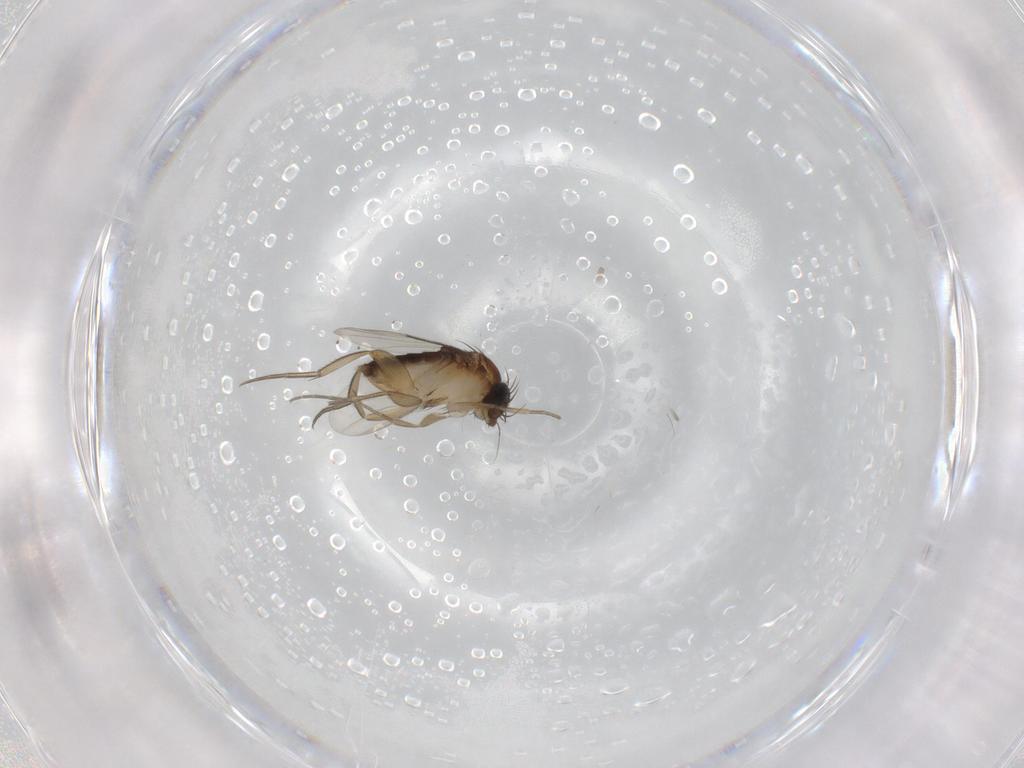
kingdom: Animalia
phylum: Arthropoda
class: Insecta
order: Diptera
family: Phoridae
